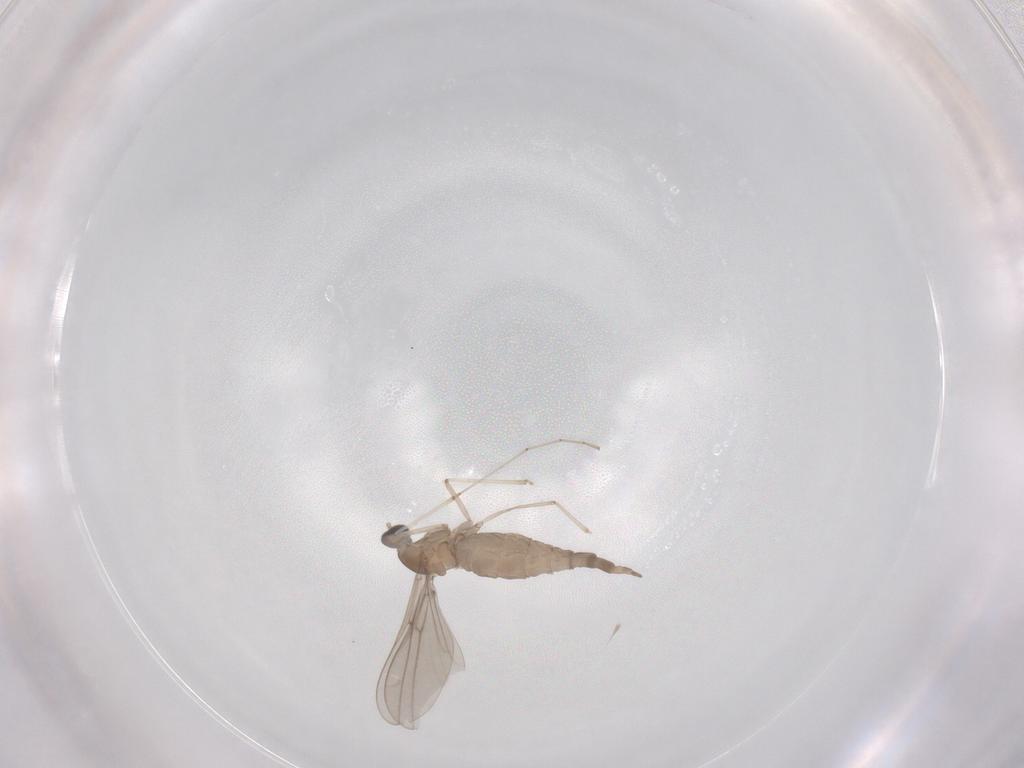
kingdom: Animalia
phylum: Arthropoda
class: Insecta
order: Diptera
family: Cecidomyiidae
